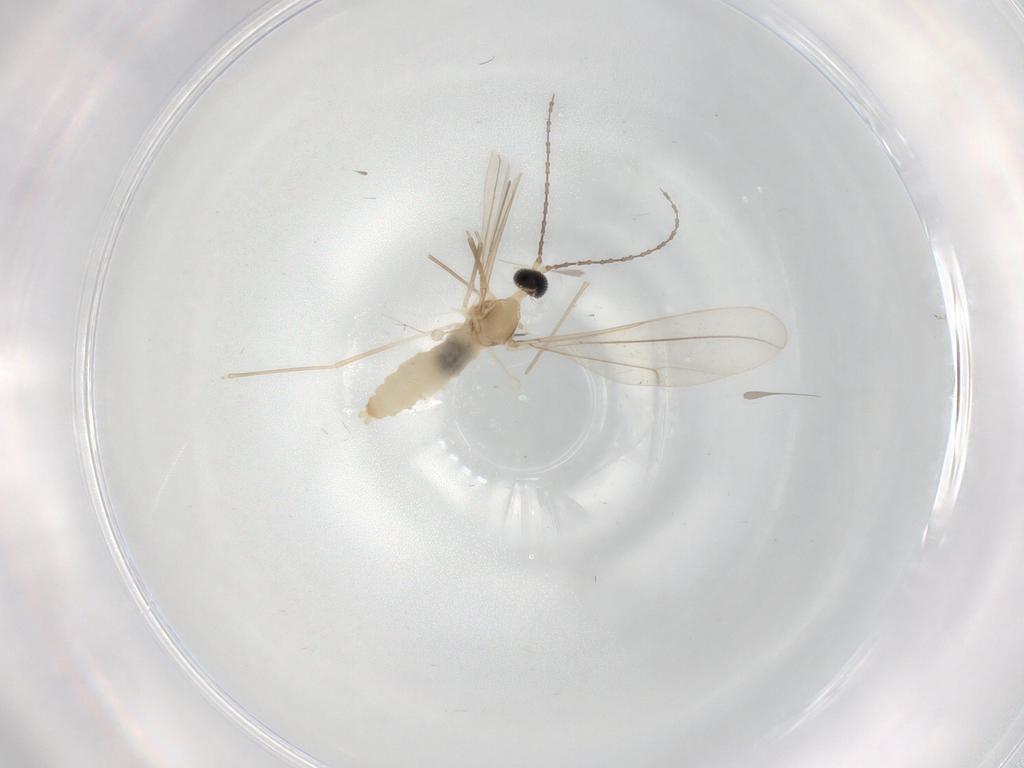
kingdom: Animalia
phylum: Arthropoda
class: Insecta
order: Diptera
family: Cecidomyiidae
